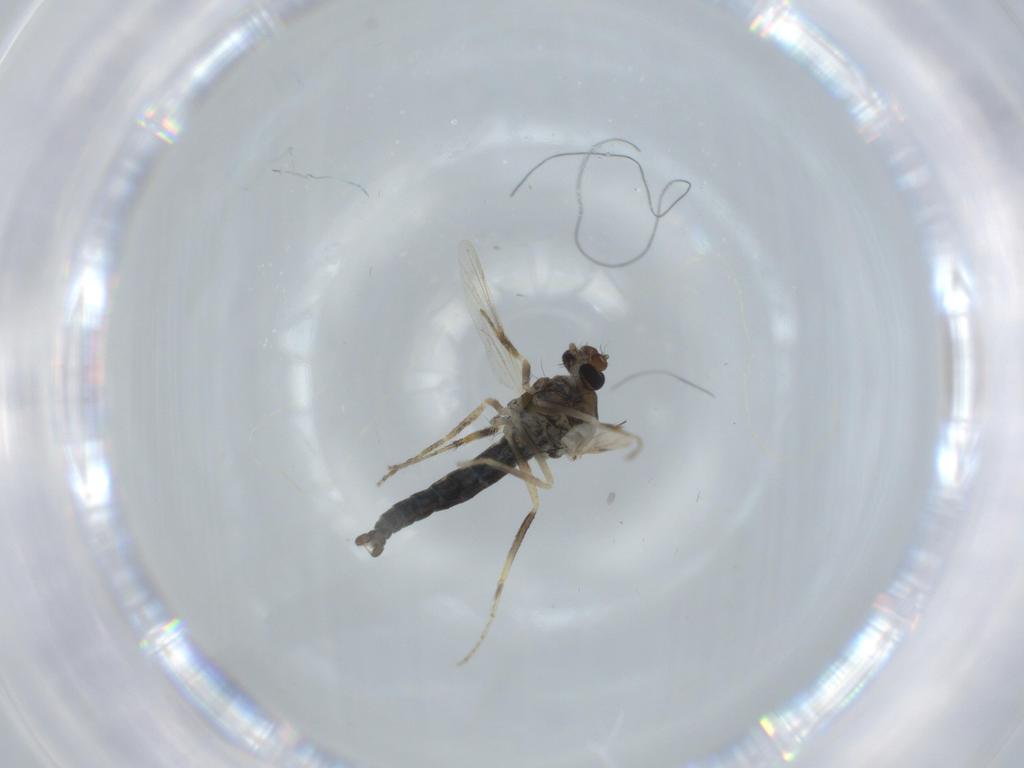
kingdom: Animalia
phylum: Arthropoda
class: Insecta
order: Diptera
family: Ceratopogonidae
